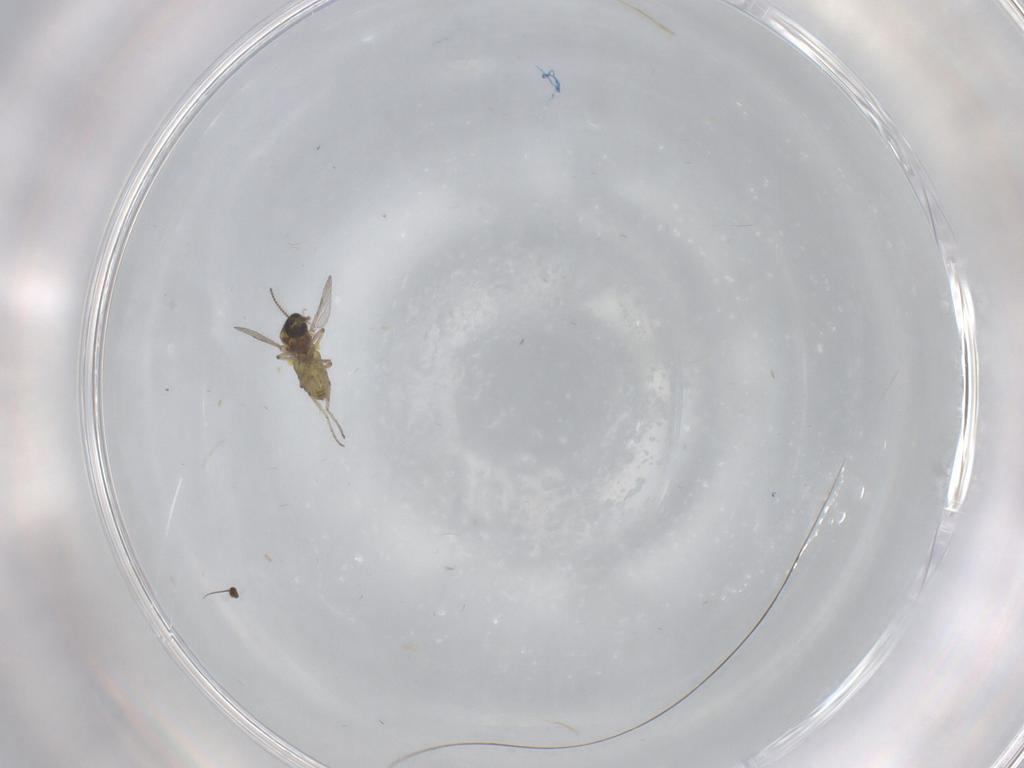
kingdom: Animalia
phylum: Arthropoda
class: Insecta
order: Diptera
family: Ceratopogonidae
